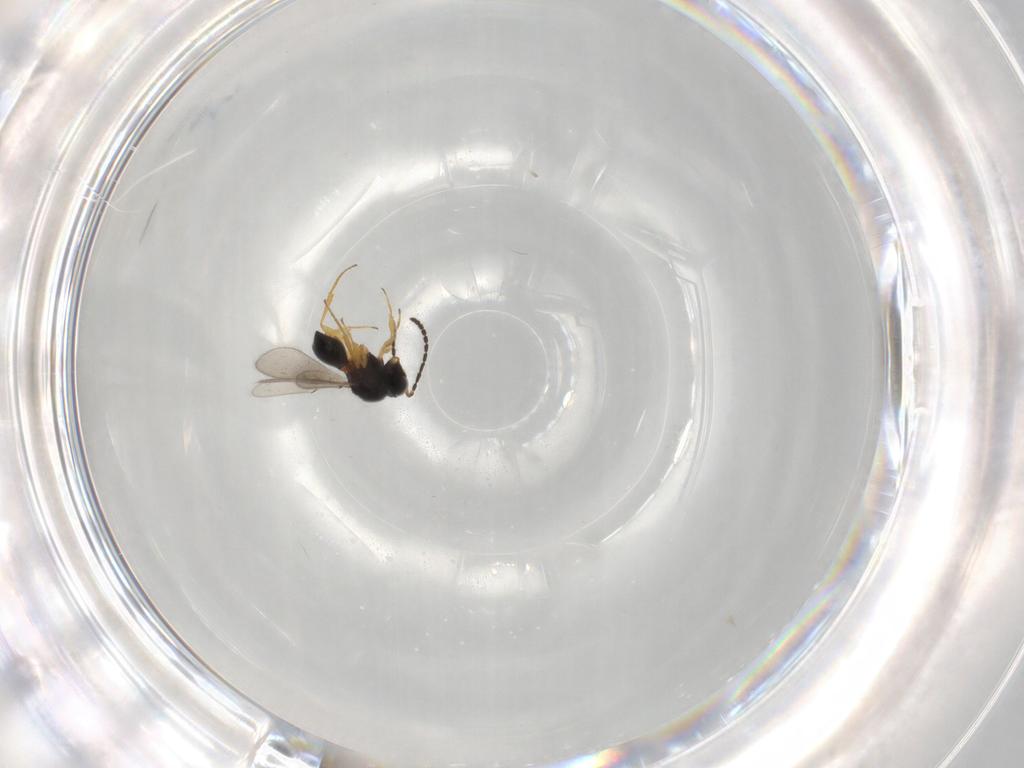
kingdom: Animalia
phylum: Arthropoda
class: Insecta
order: Hymenoptera
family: Scelionidae
